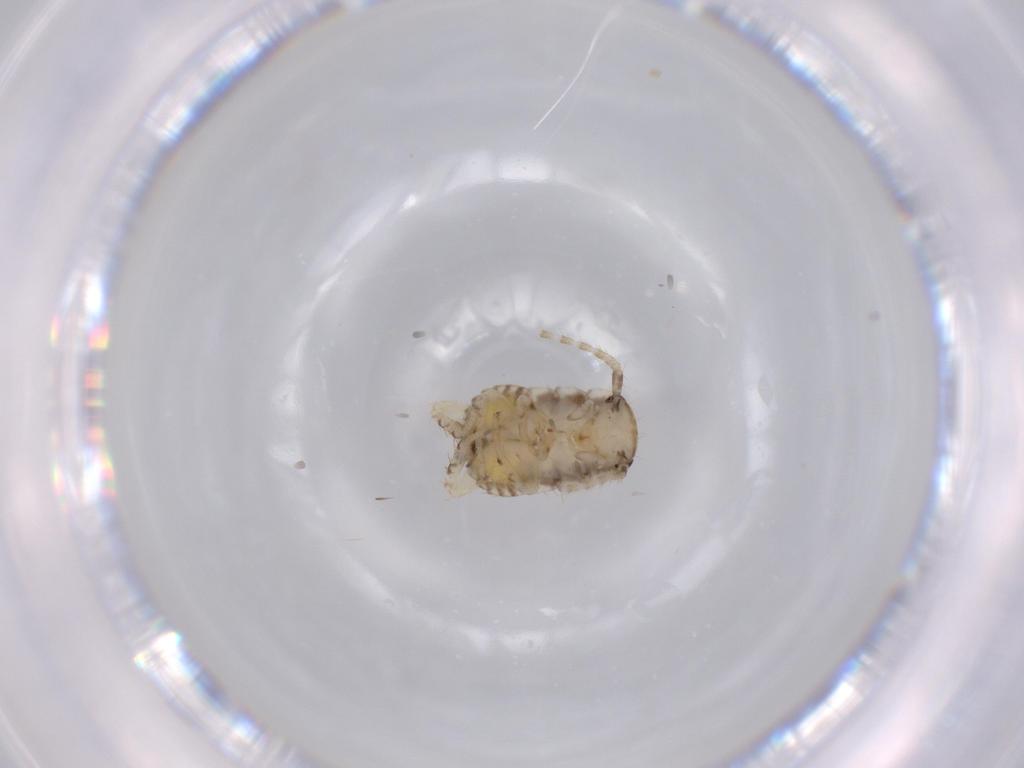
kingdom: Animalia
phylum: Arthropoda
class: Insecta
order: Blattodea
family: Ectobiidae
